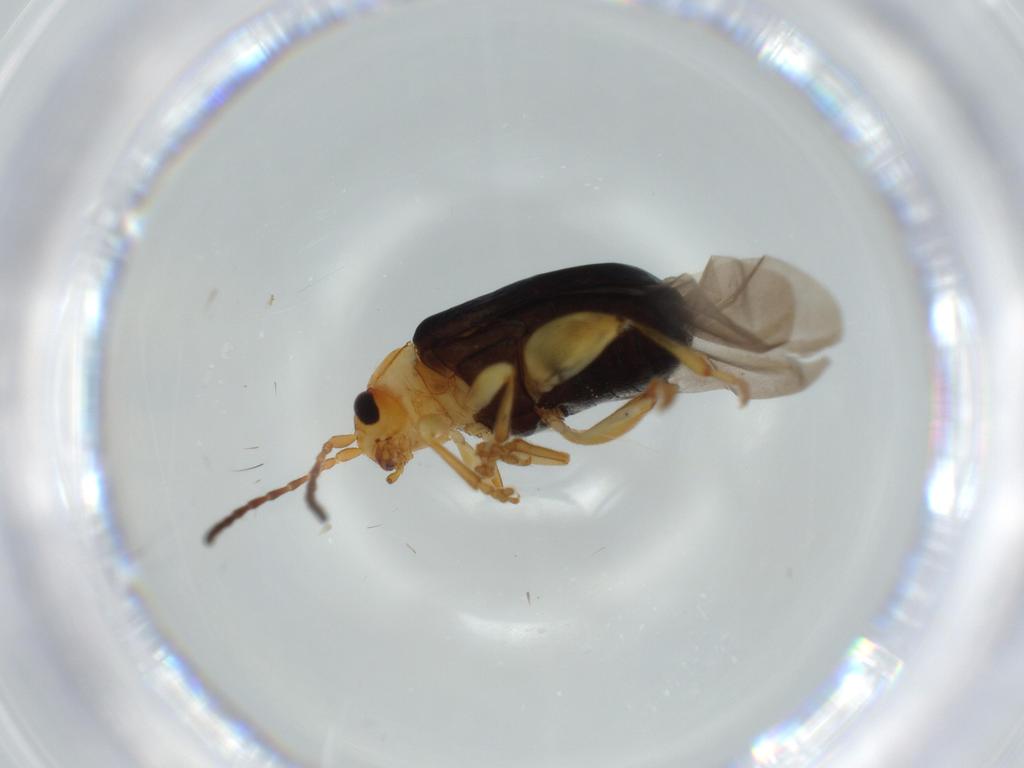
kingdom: Animalia
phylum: Arthropoda
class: Insecta
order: Coleoptera
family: Chrysomelidae
